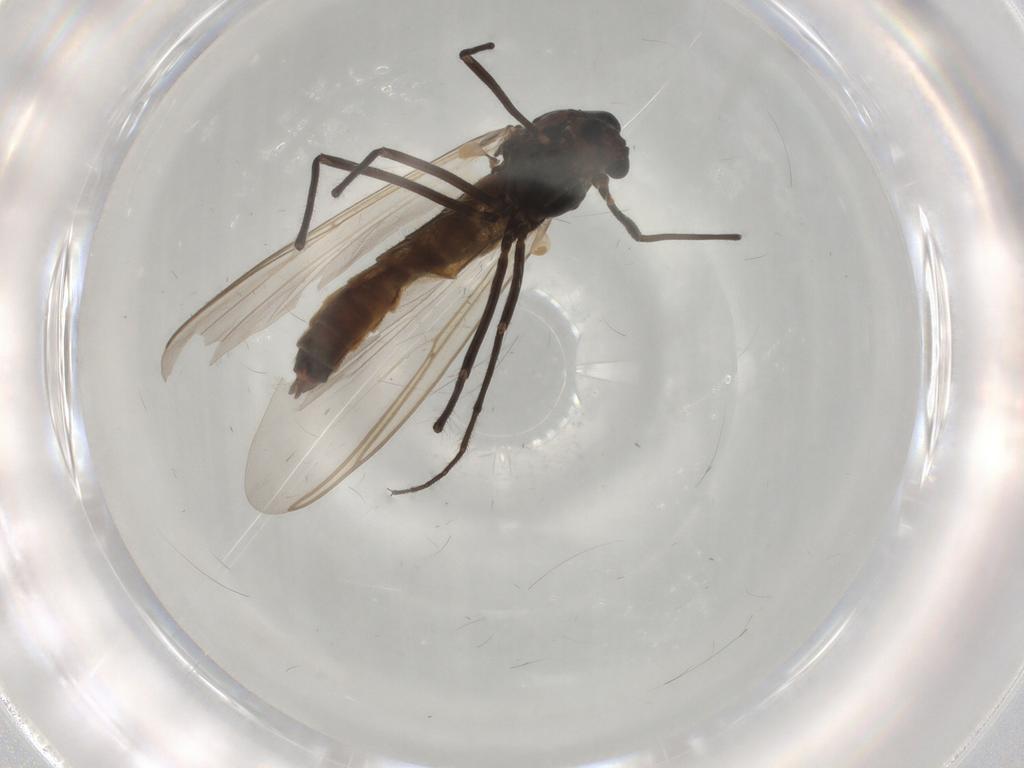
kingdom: Animalia
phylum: Arthropoda
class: Insecta
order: Diptera
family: Chironomidae
